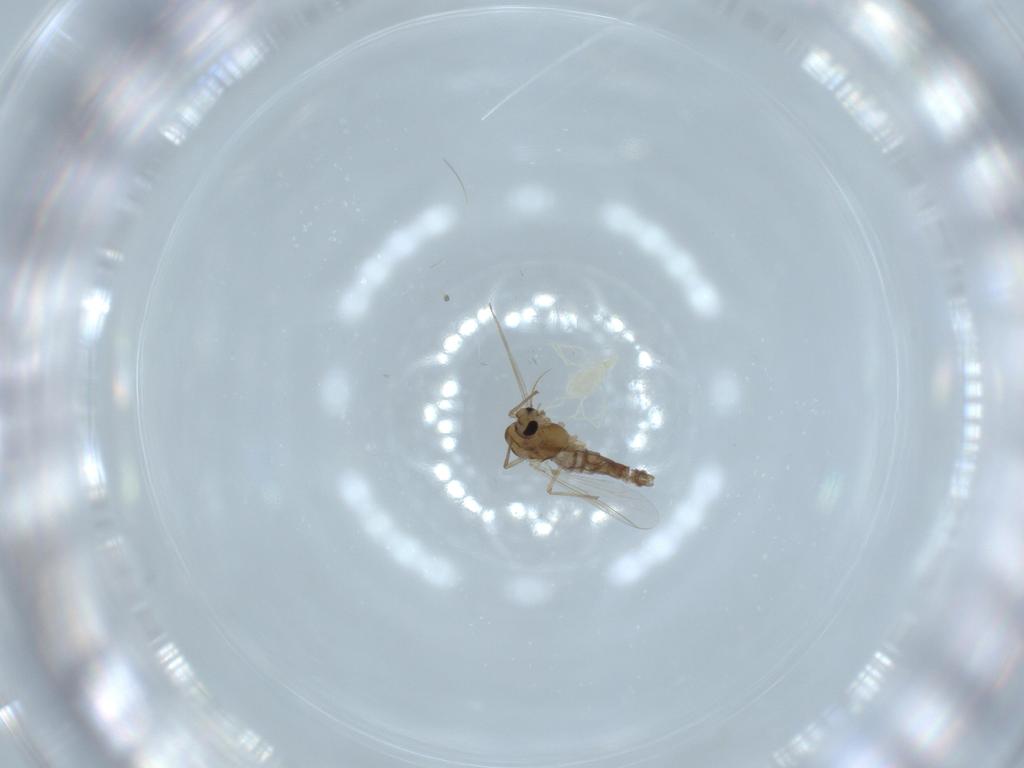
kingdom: Animalia
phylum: Arthropoda
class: Insecta
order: Diptera
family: Chironomidae
